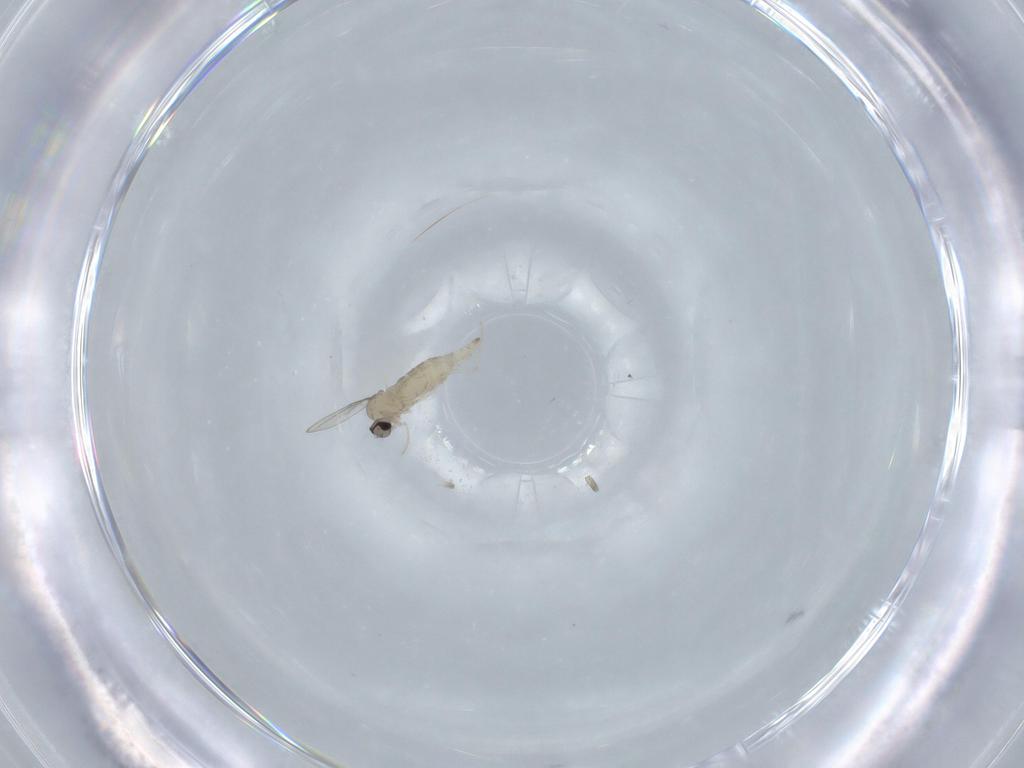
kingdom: Animalia
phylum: Arthropoda
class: Insecta
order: Diptera
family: Cecidomyiidae
